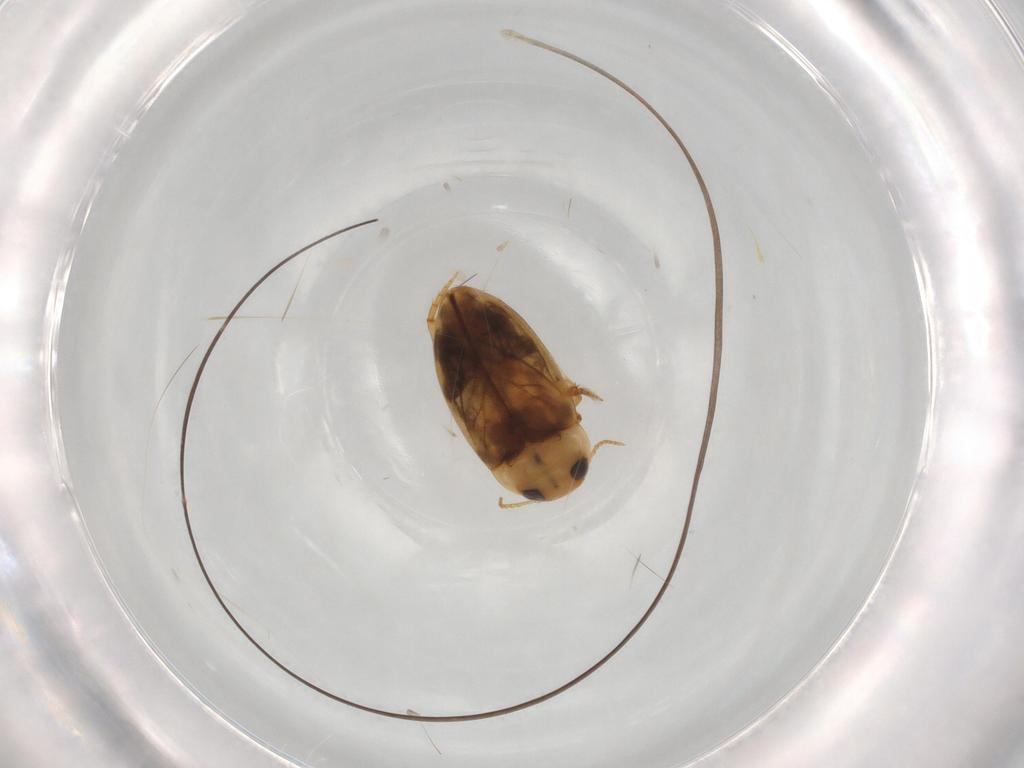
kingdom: Animalia
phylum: Arthropoda
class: Insecta
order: Coleoptera
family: Dytiscidae
